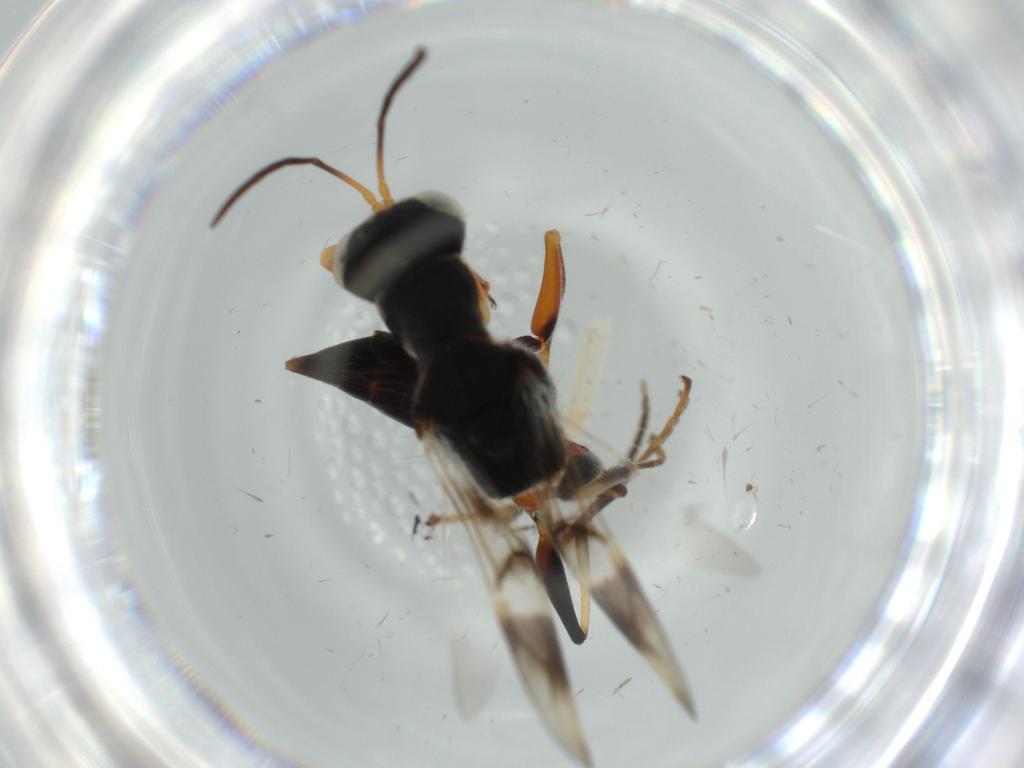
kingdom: Animalia
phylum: Arthropoda
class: Insecta
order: Hymenoptera
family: Dryinidae
